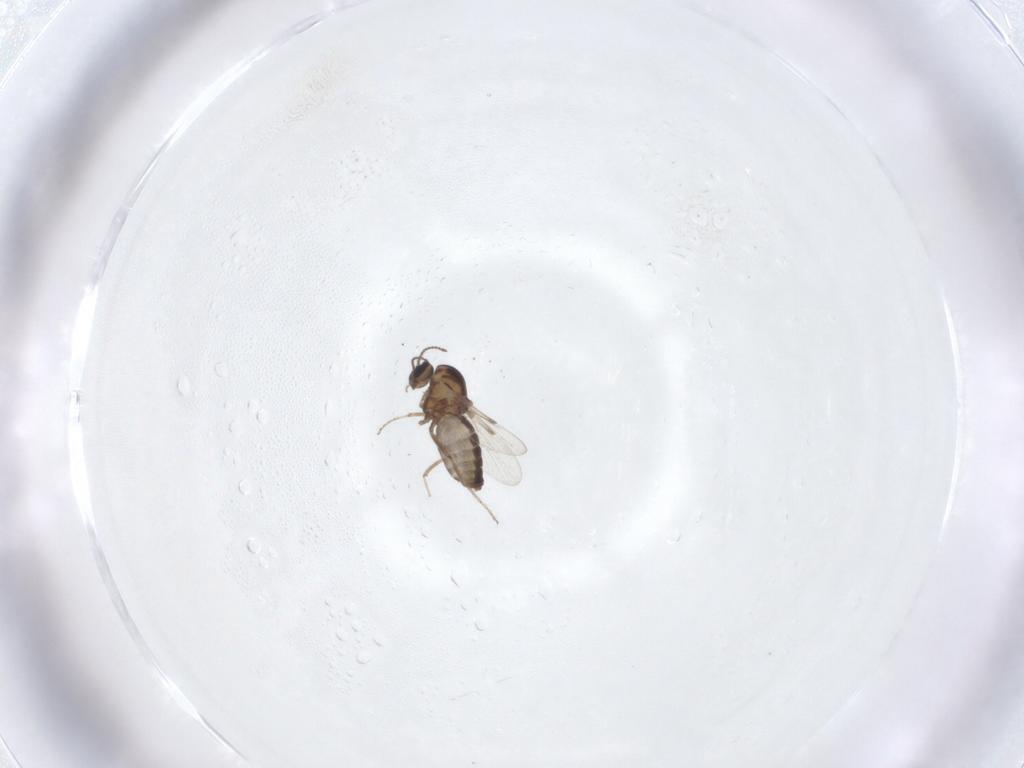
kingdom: Animalia
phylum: Arthropoda
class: Insecta
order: Diptera
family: Ceratopogonidae
